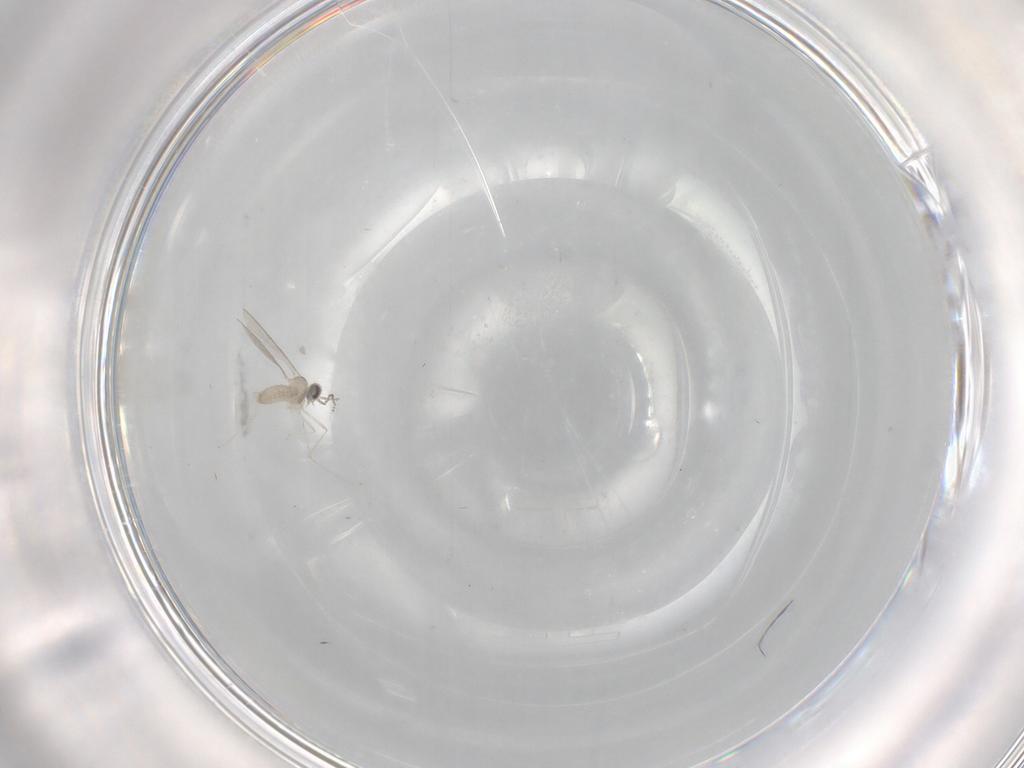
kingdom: Animalia
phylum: Arthropoda
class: Insecta
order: Diptera
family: Cecidomyiidae
